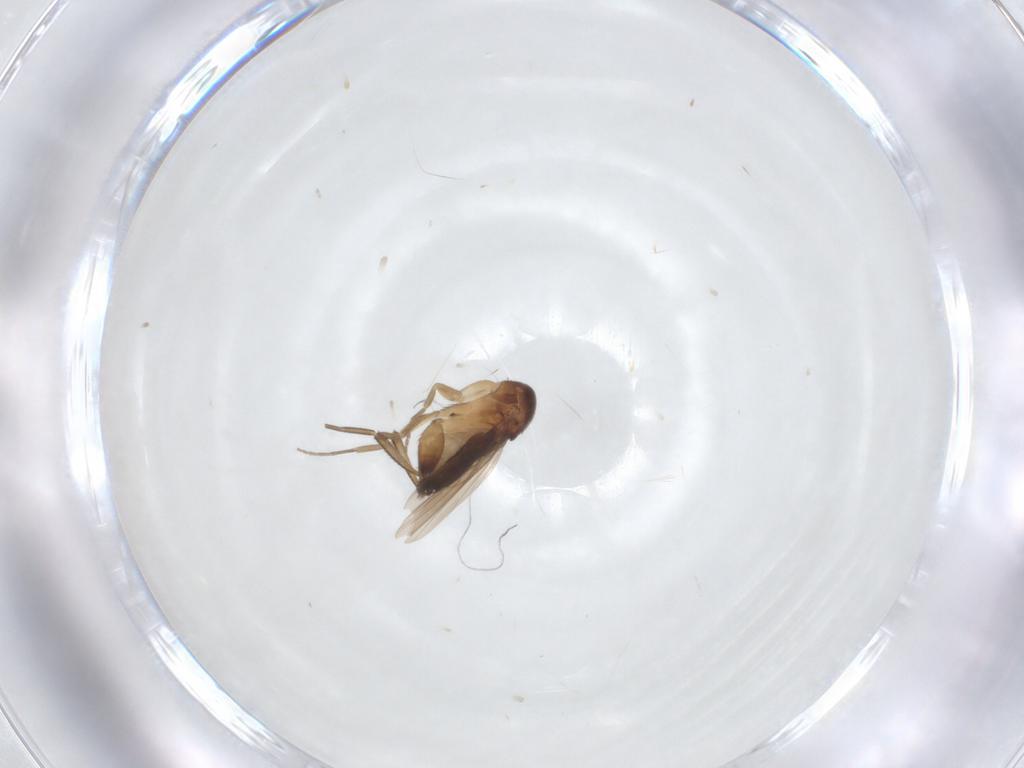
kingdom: Animalia
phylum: Arthropoda
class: Insecta
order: Diptera
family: Phoridae
